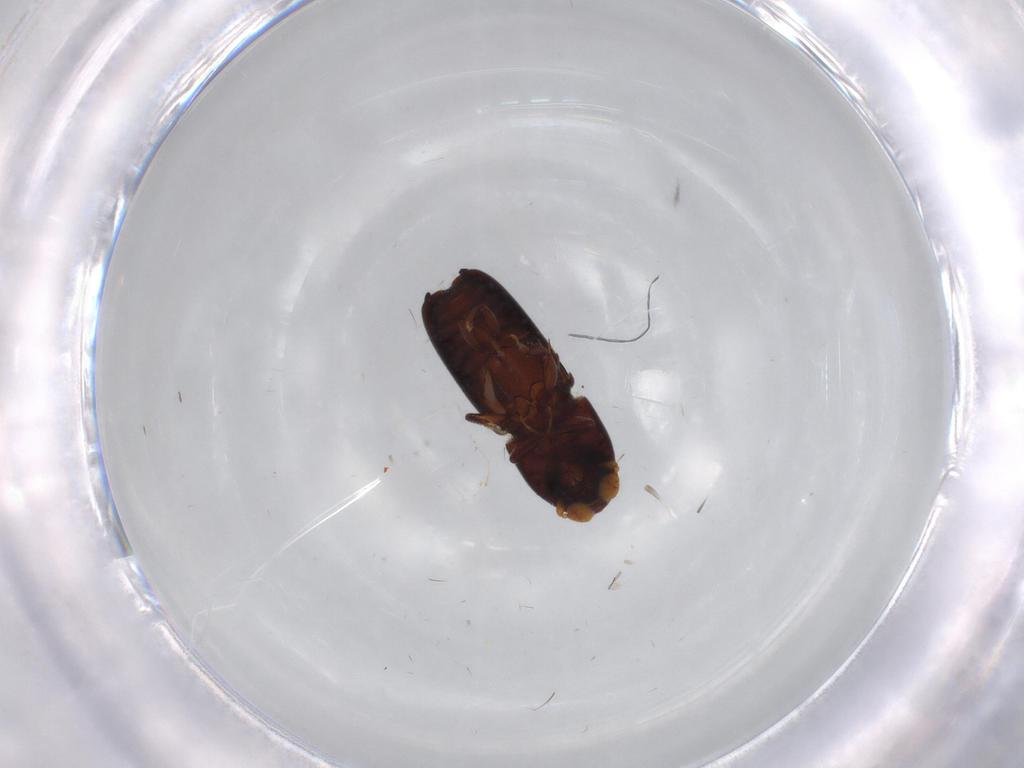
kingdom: Animalia
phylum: Arthropoda
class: Insecta
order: Coleoptera
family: Curculionidae
